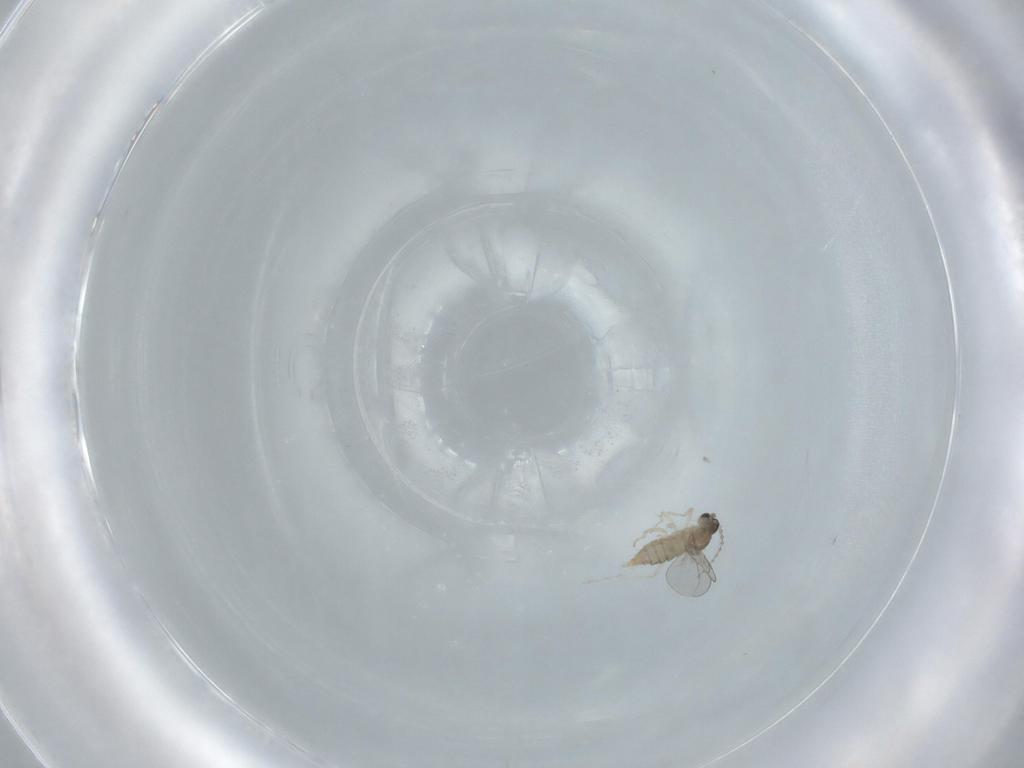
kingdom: Animalia
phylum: Arthropoda
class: Insecta
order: Diptera
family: Cecidomyiidae
